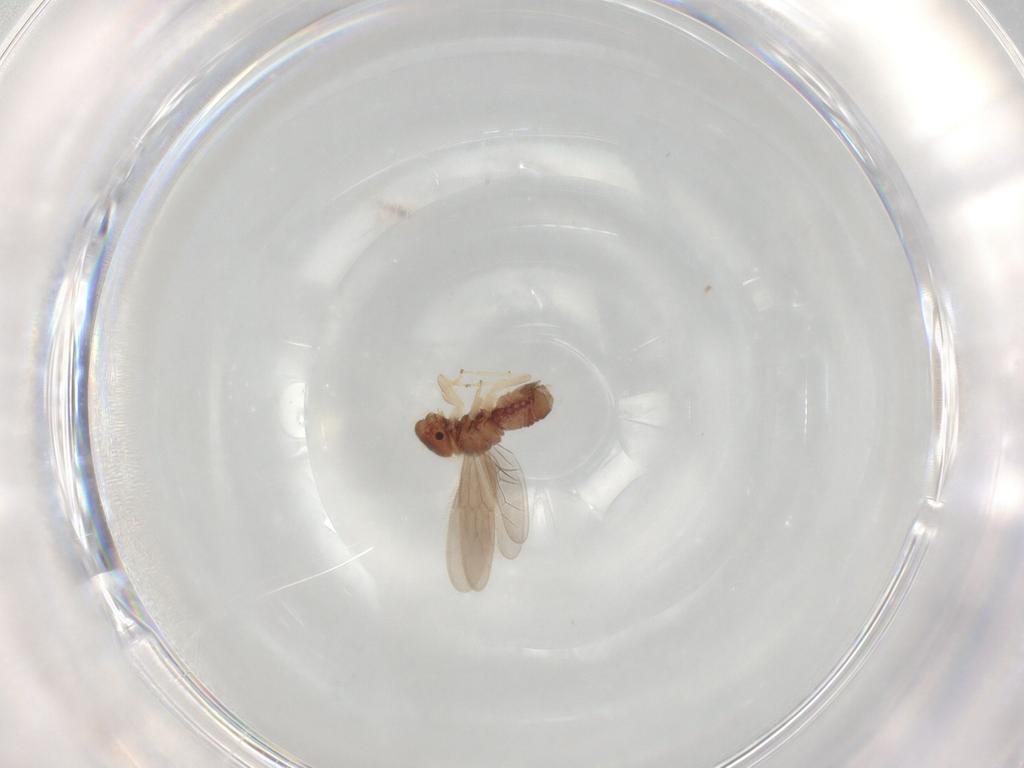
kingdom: Animalia
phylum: Arthropoda
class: Insecta
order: Psocodea
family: Archipsocidae
